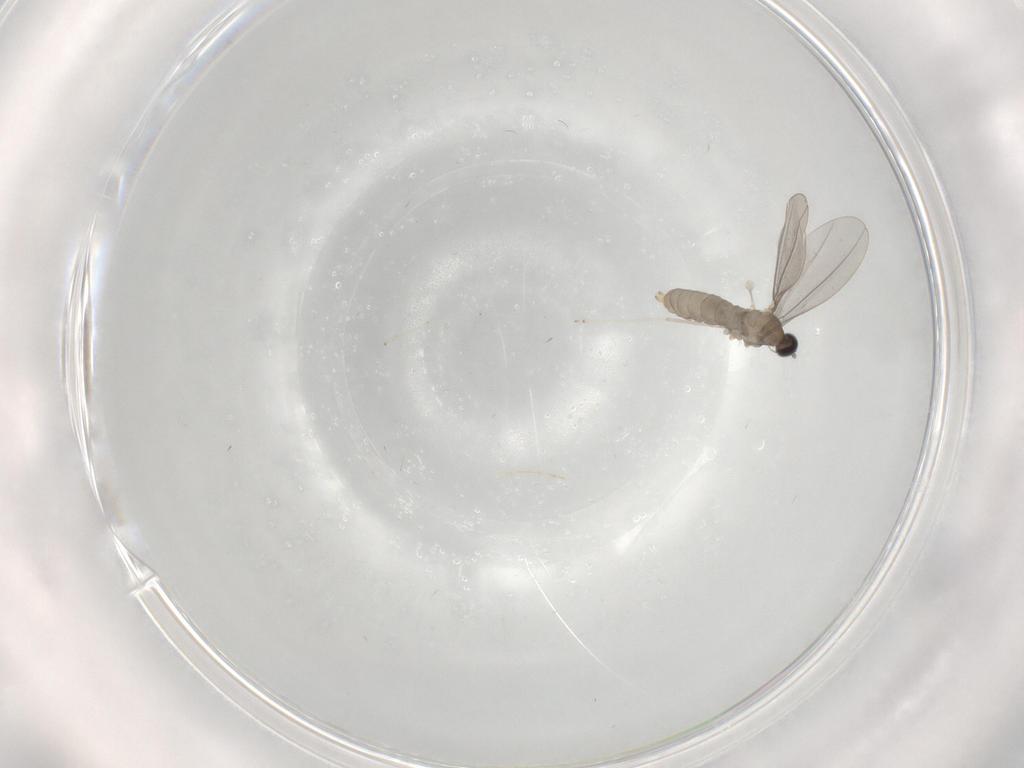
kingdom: Animalia
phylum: Arthropoda
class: Insecta
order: Diptera
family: Cecidomyiidae
